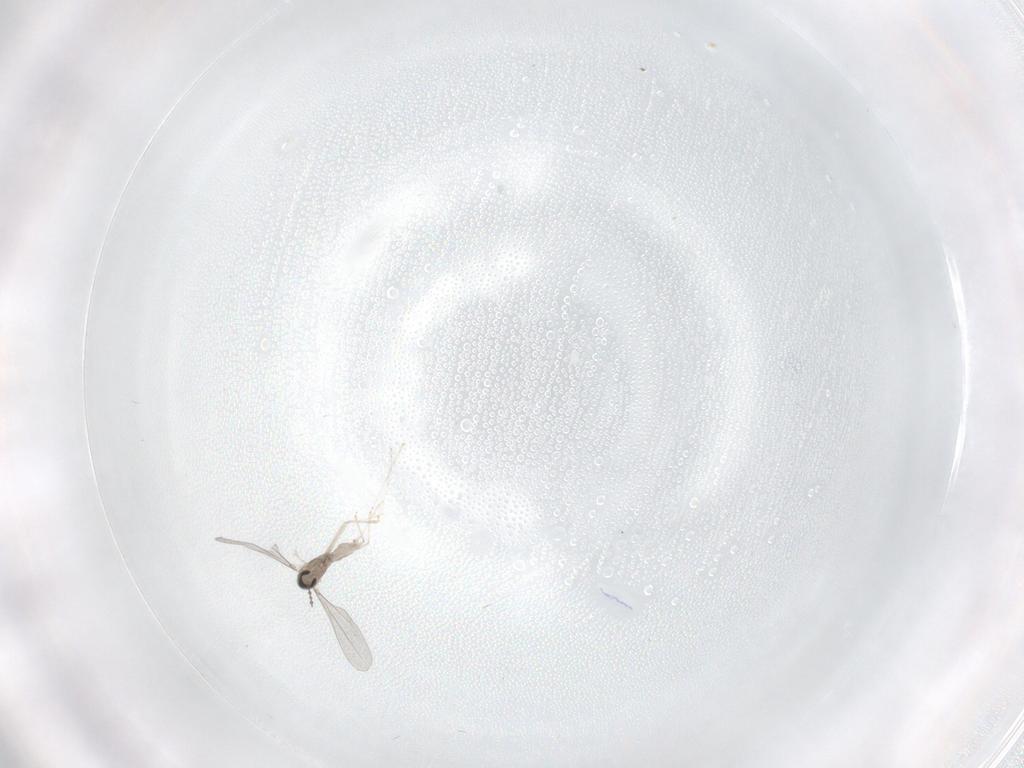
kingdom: Animalia
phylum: Arthropoda
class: Insecta
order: Diptera
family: Cecidomyiidae
